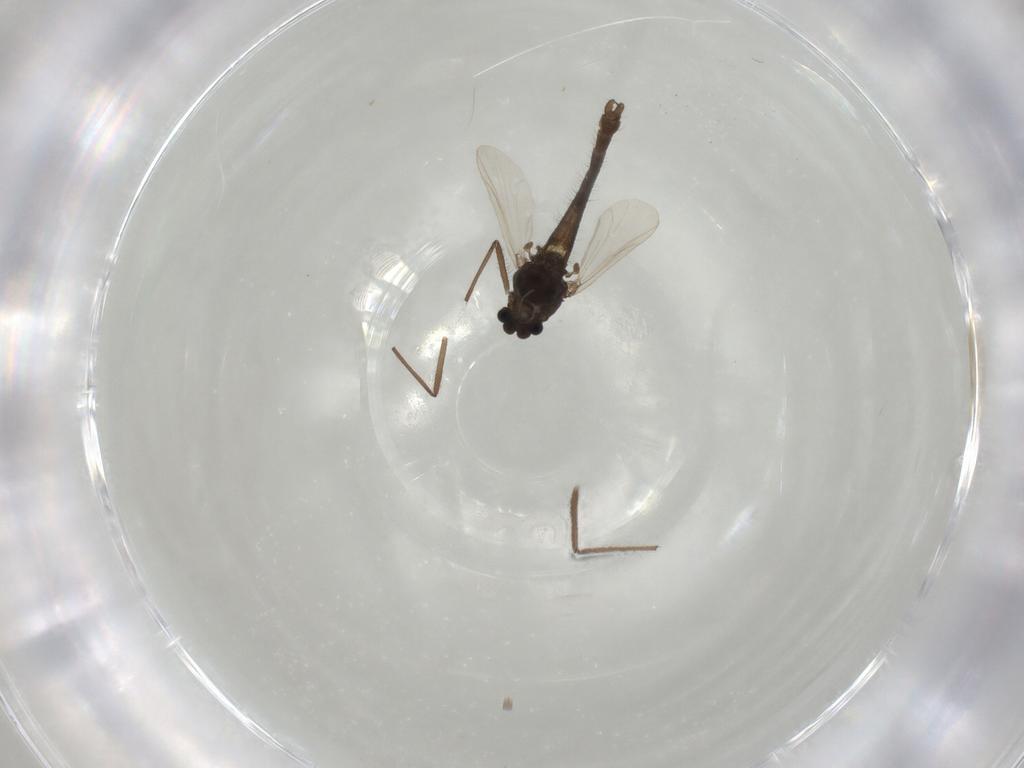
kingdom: Animalia
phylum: Arthropoda
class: Insecta
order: Diptera
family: Chironomidae
